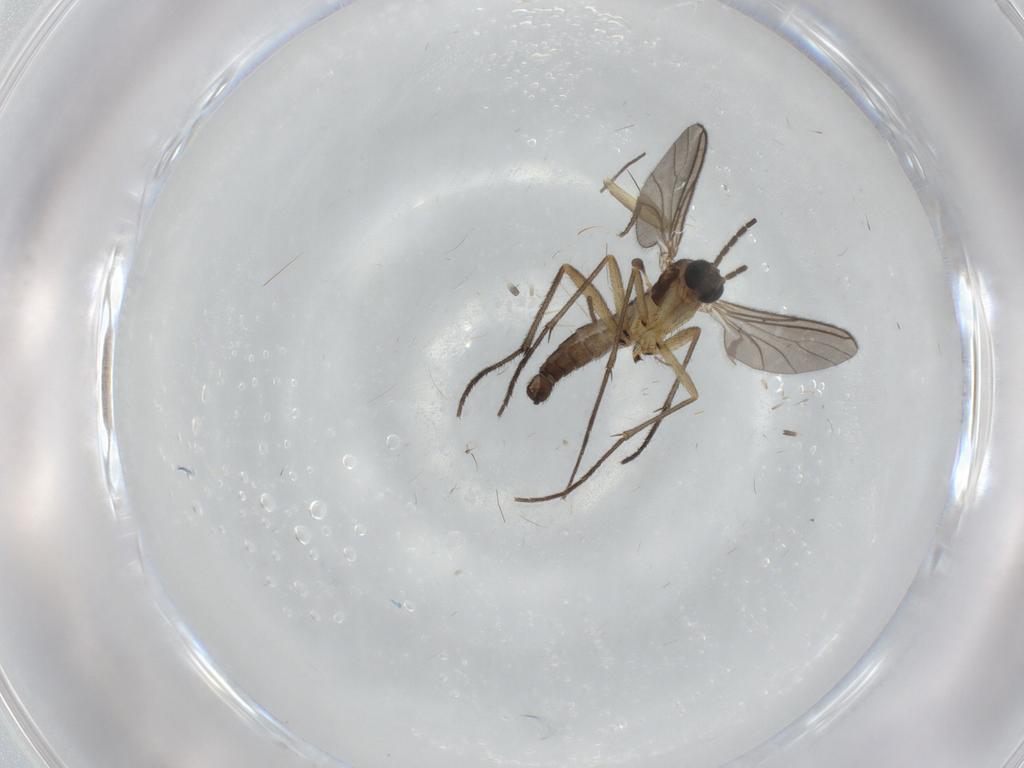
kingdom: Animalia
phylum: Arthropoda
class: Insecta
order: Diptera
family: Sciaridae
